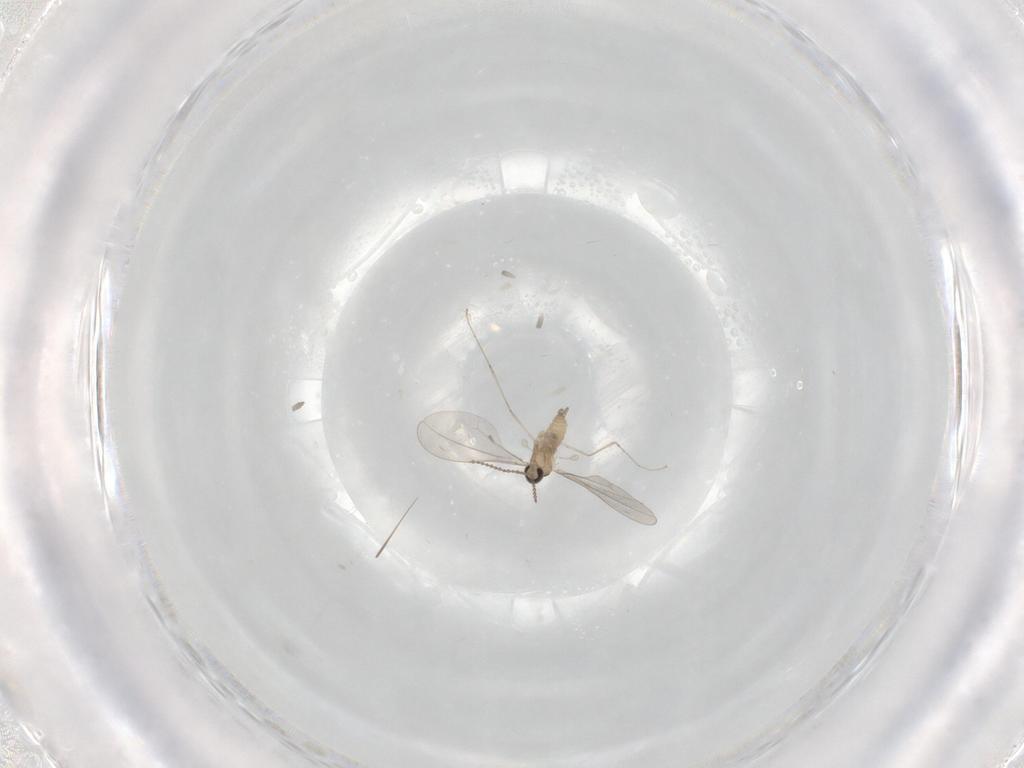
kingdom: Animalia
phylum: Arthropoda
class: Insecta
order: Diptera
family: Cecidomyiidae
